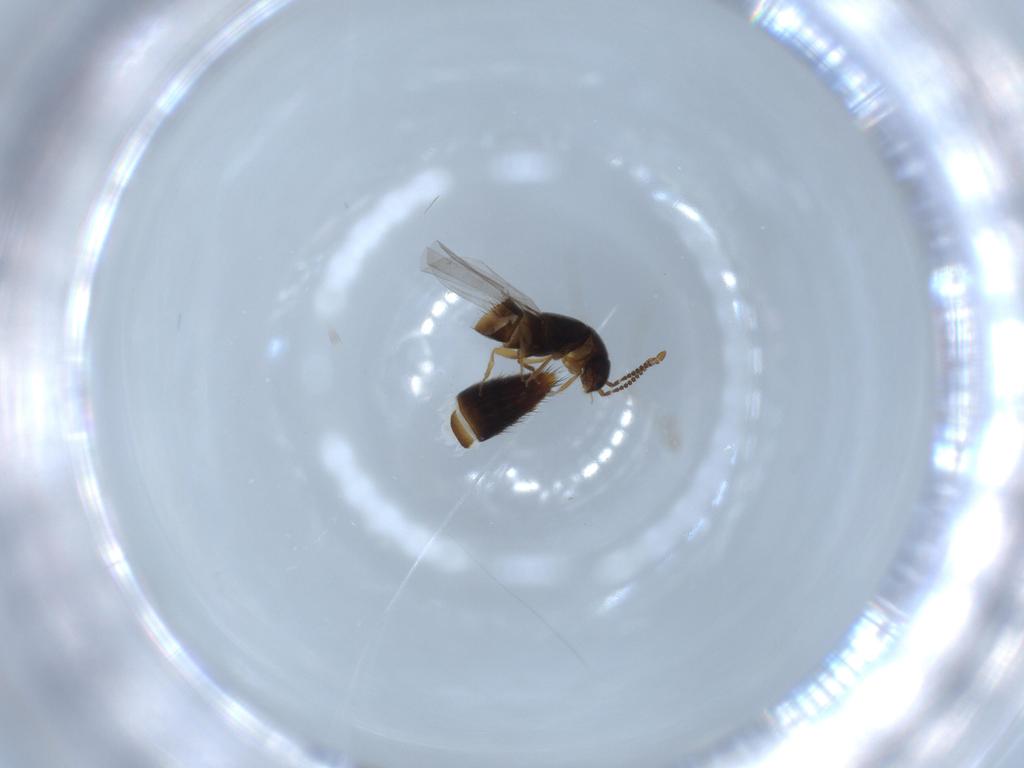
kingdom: Animalia
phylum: Arthropoda
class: Insecta
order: Coleoptera
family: Staphylinidae
